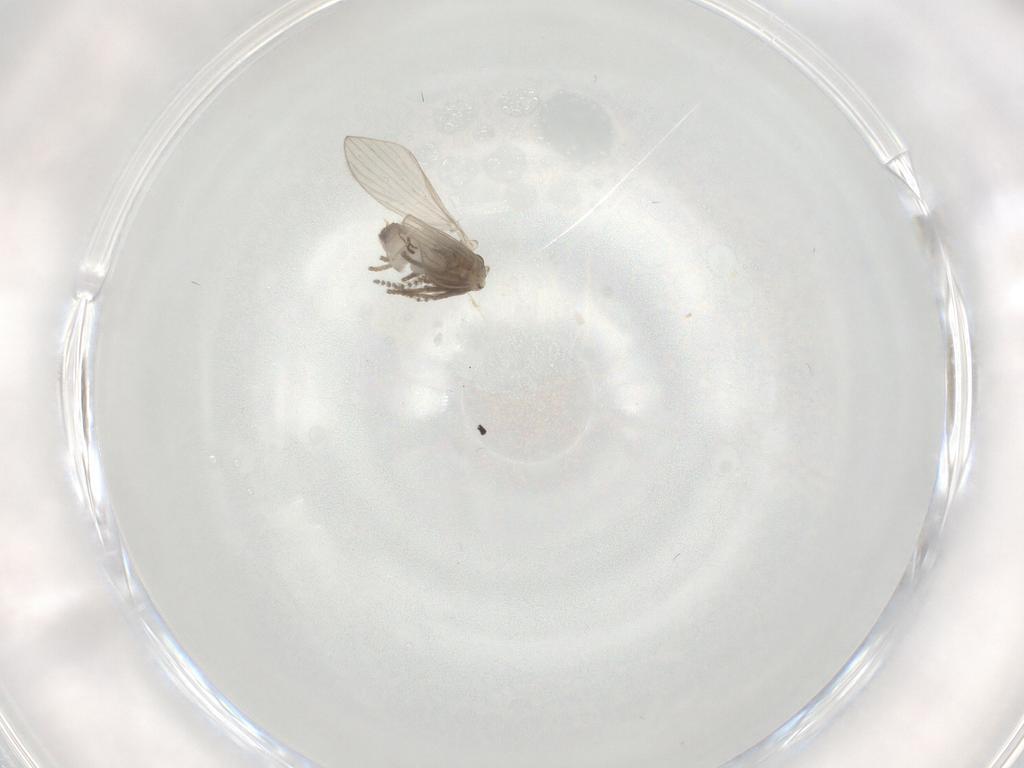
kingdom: Animalia
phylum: Arthropoda
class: Insecta
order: Diptera
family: Psychodidae
